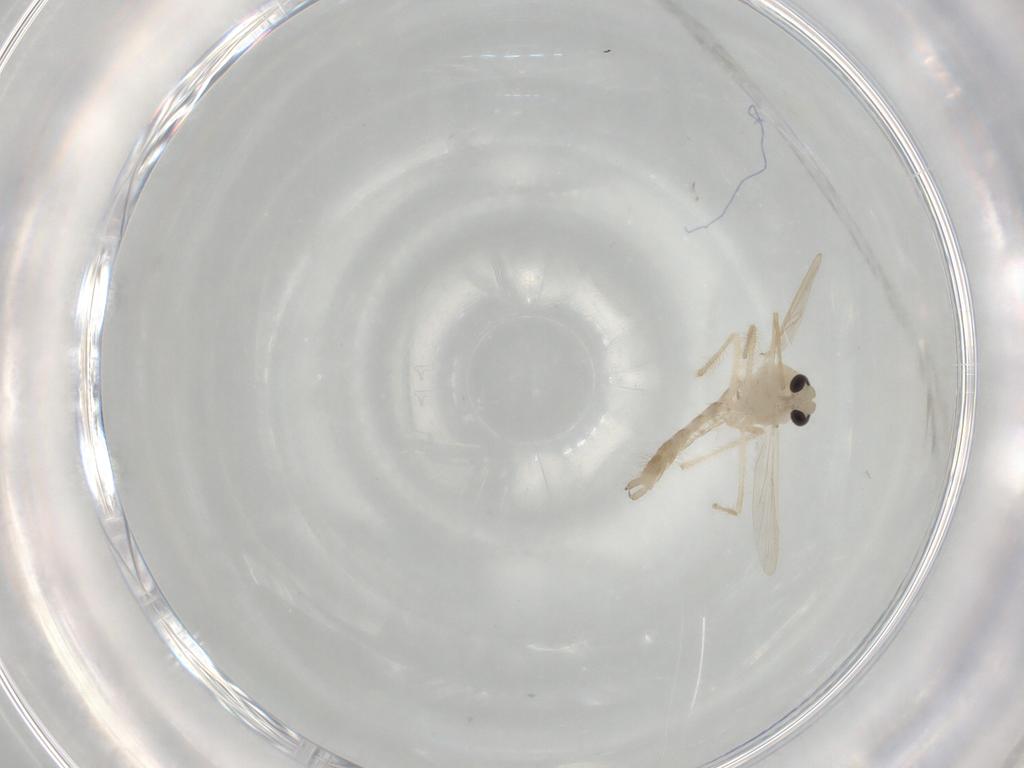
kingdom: Animalia
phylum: Arthropoda
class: Insecta
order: Diptera
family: Chironomidae
